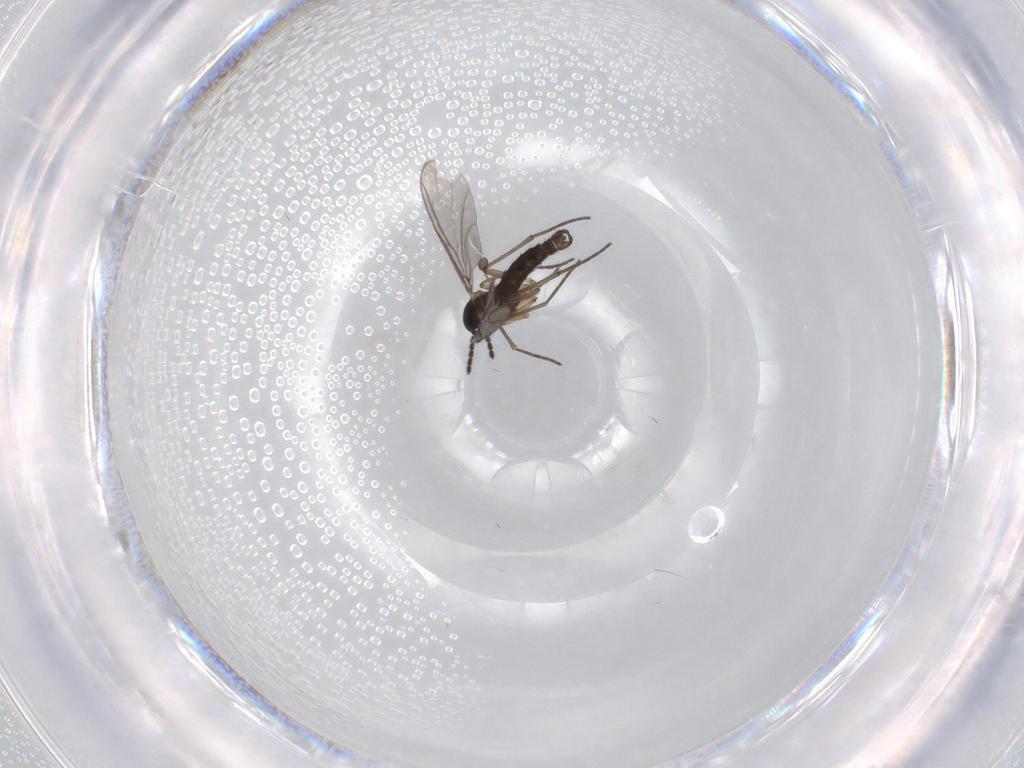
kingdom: Animalia
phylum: Arthropoda
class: Insecta
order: Diptera
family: Sciaridae
